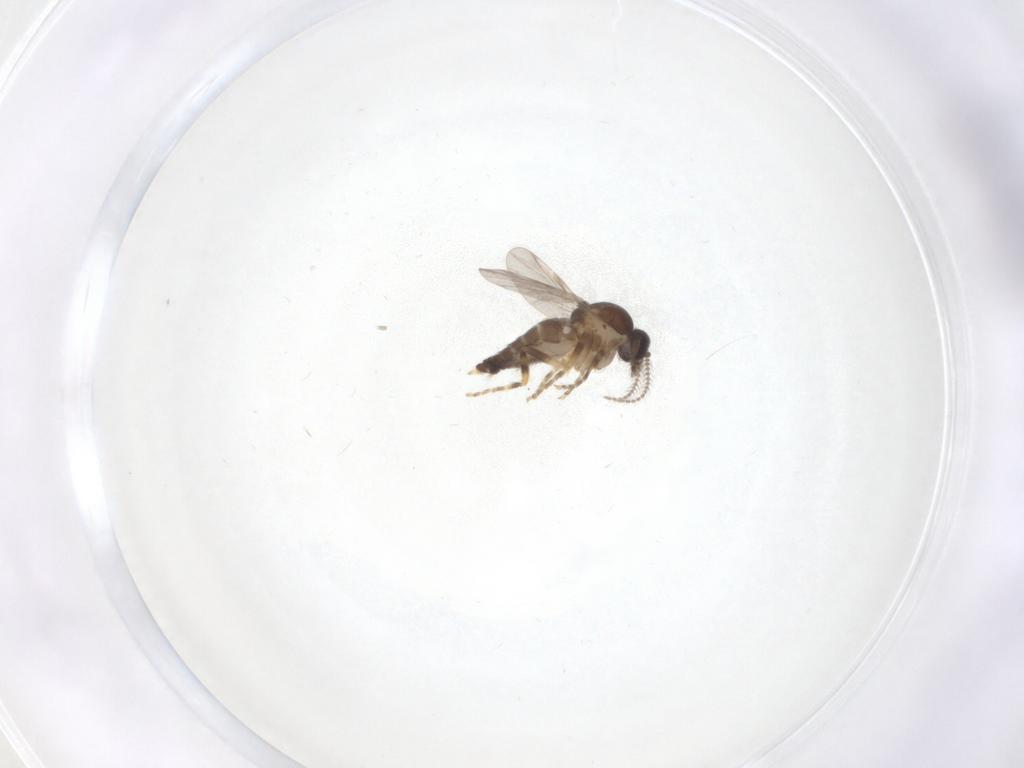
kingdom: Animalia
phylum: Arthropoda
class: Insecta
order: Diptera
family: Ceratopogonidae
